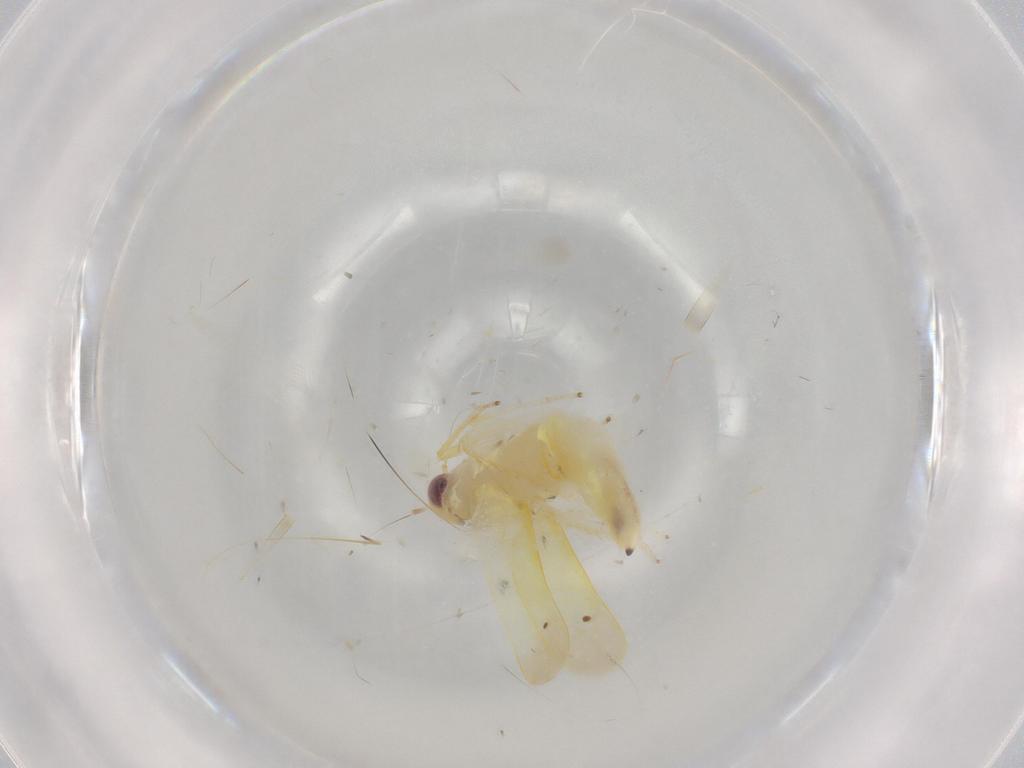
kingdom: Animalia
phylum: Arthropoda
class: Insecta
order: Hemiptera
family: Cicadellidae
